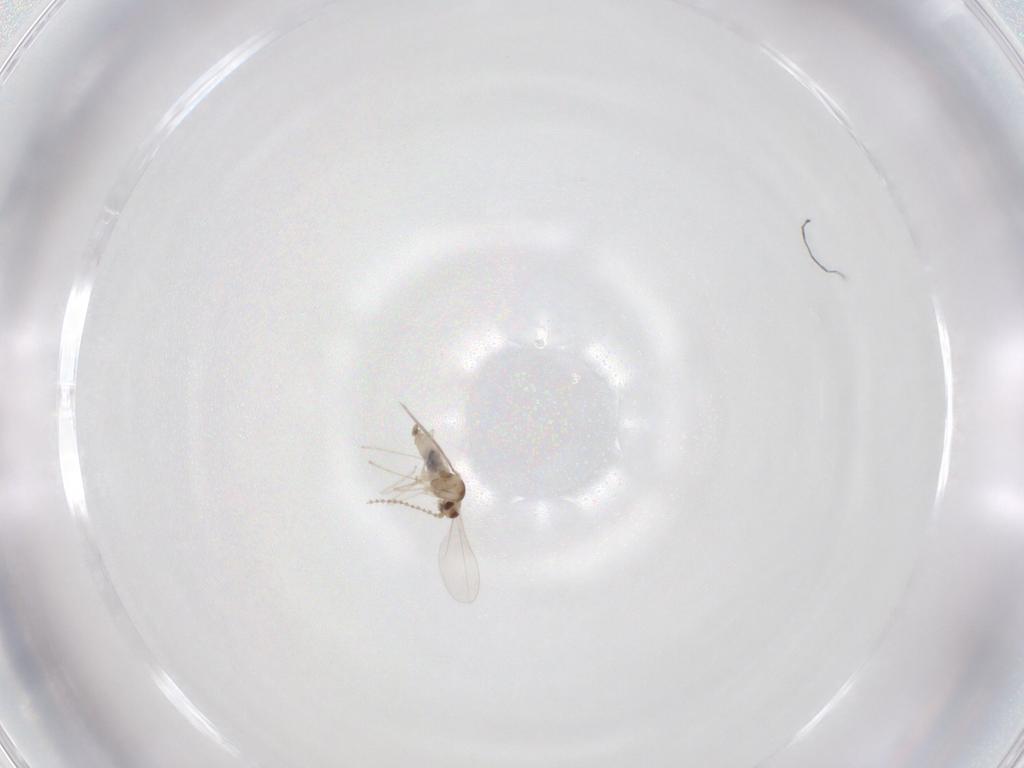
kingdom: Animalia
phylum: Arthropoda
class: Insecta
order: Diptera
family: Cecidomyiidae
